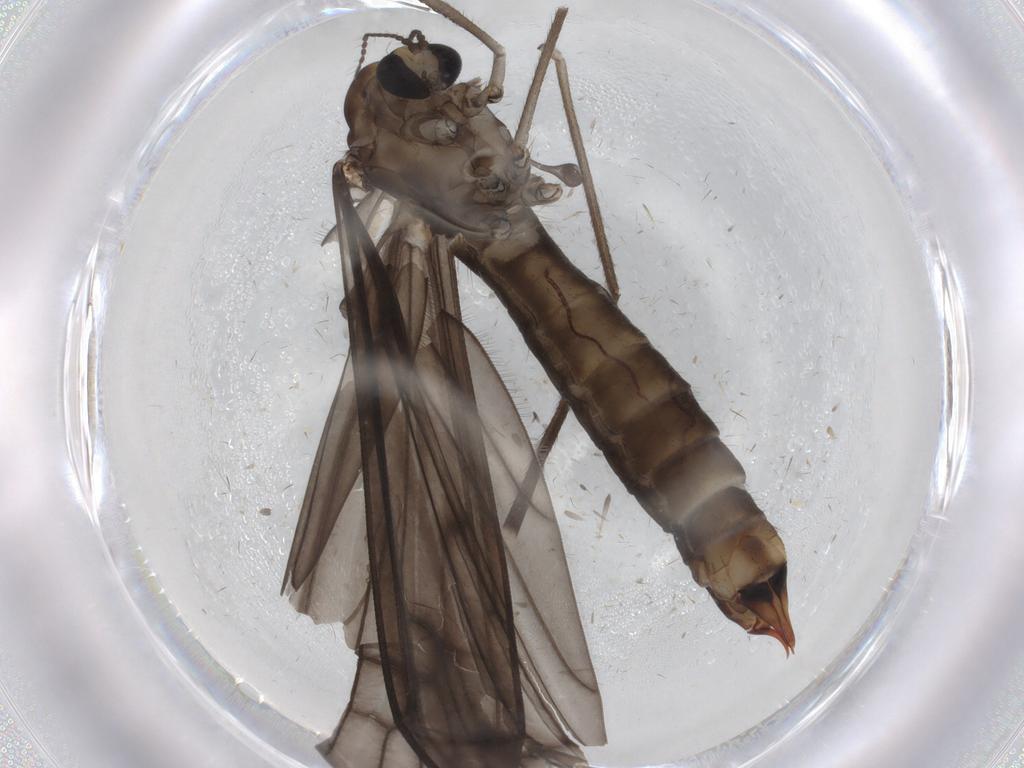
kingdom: Animalia
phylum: Arthropoda
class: Insecta
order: Diptera
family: Limoniidae
